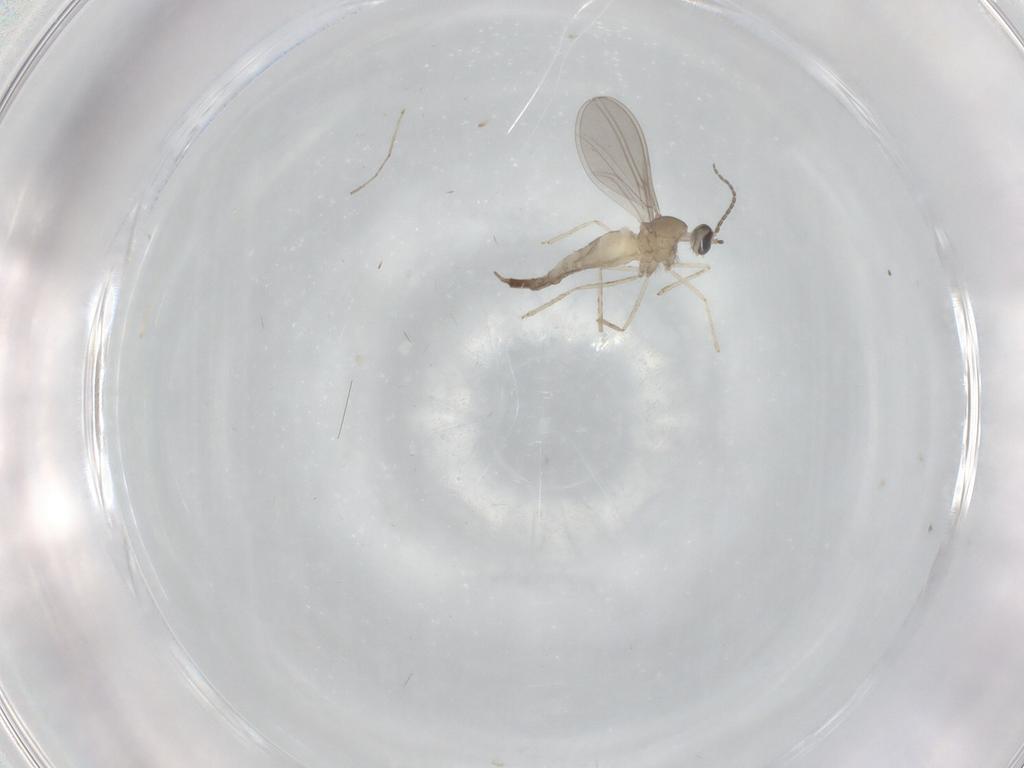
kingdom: Animalia
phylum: Arthropoda
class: Insecta
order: Diptera
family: Cecidomyiidae
